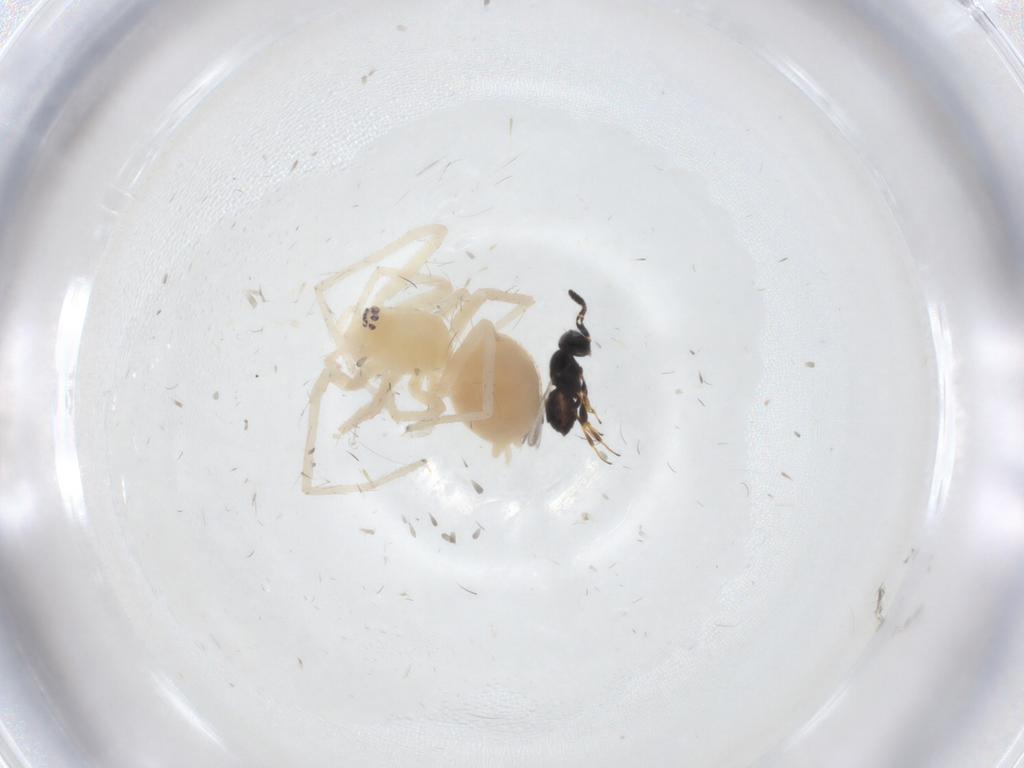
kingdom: Animalia
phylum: Arthropoda
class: Insecta
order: Hymenoptera
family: Scelionidae
